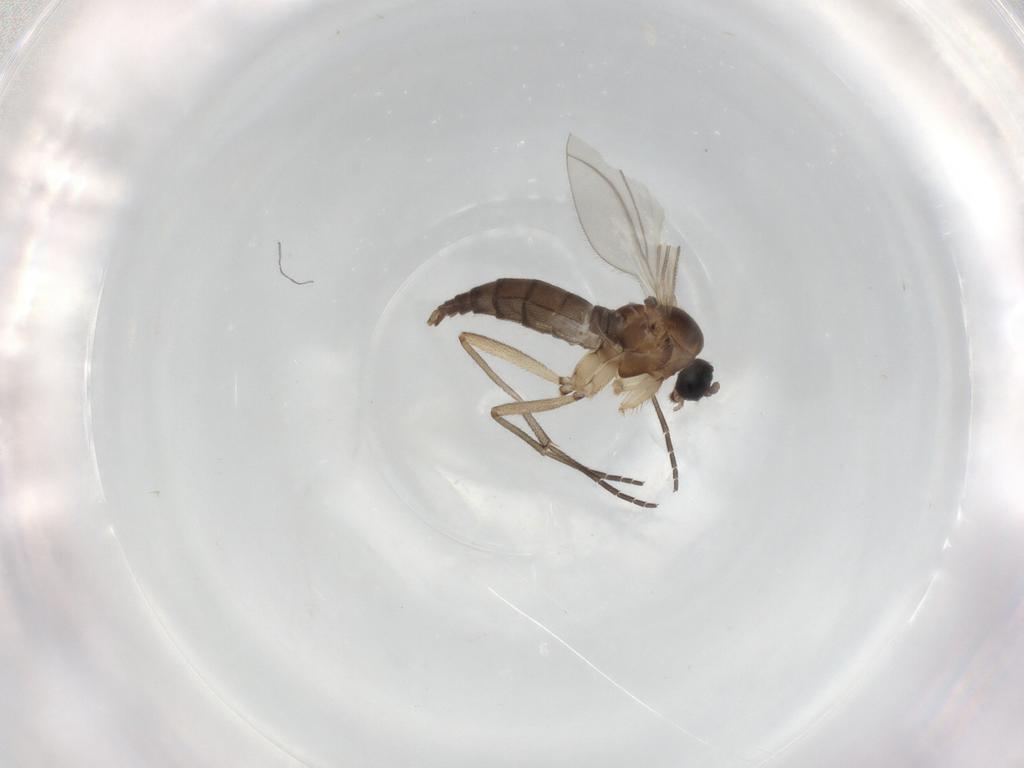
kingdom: Animalia
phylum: Arthropoda
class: Insecta
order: Diptera
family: Sciaridae
